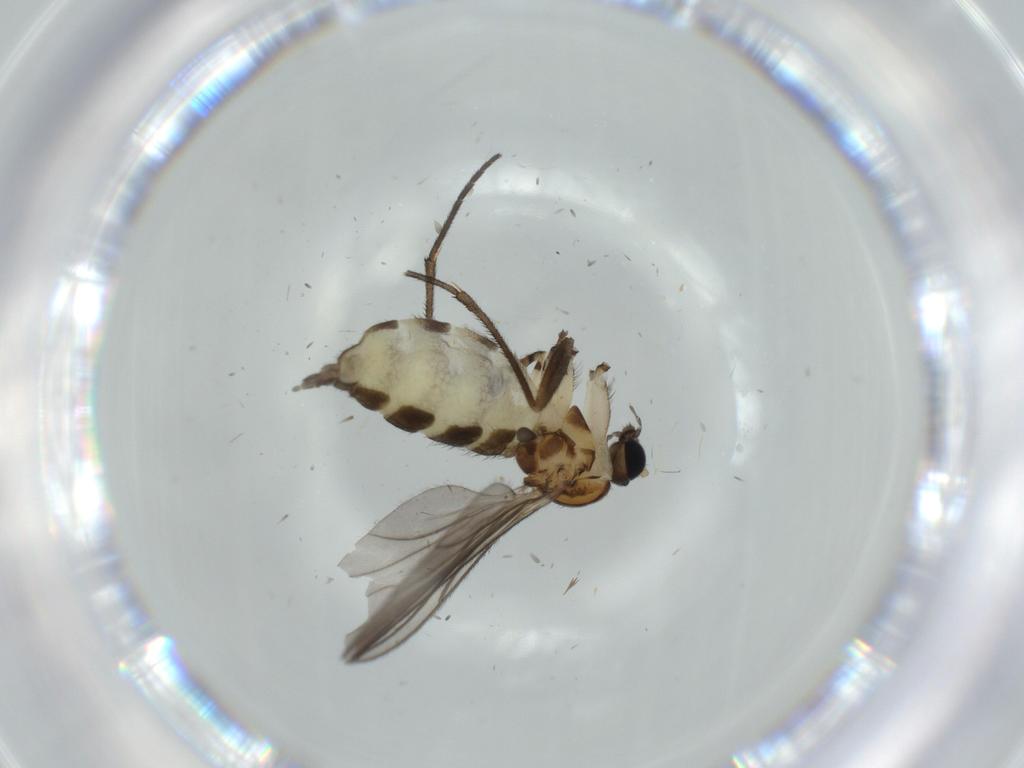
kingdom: Animalia
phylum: Arthropoda
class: Insecta
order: Diptera
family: Sciaridae
